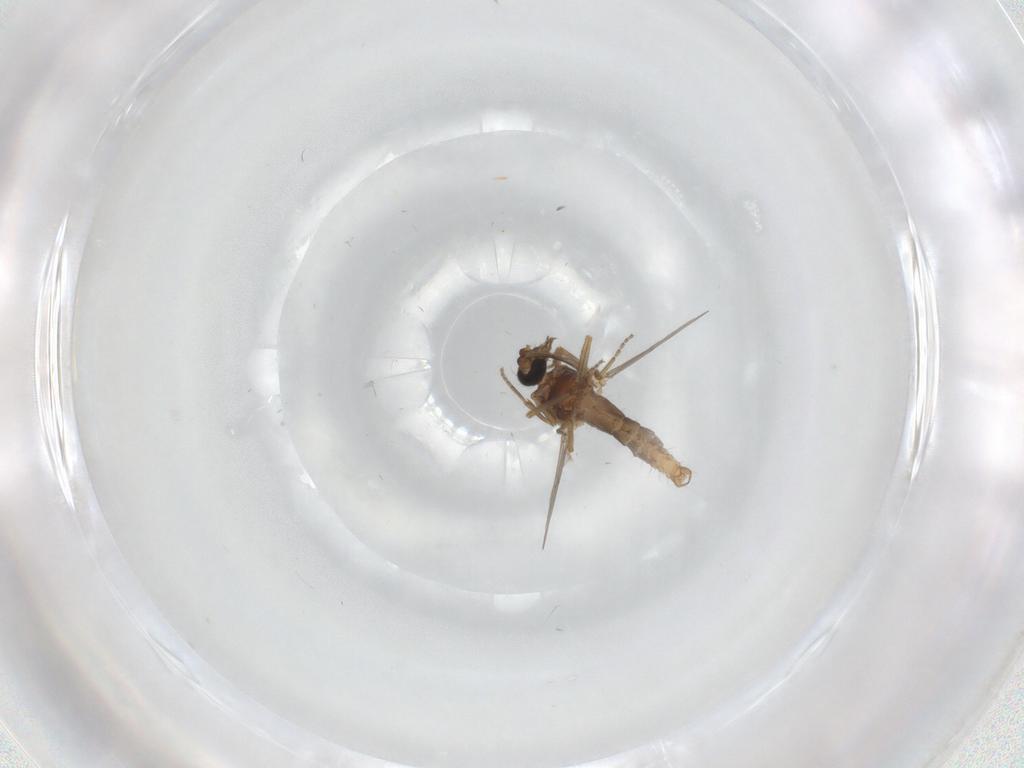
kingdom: Animalia
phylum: Arthropoda
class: Insecta
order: Diptera
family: Ceratopogonidae
